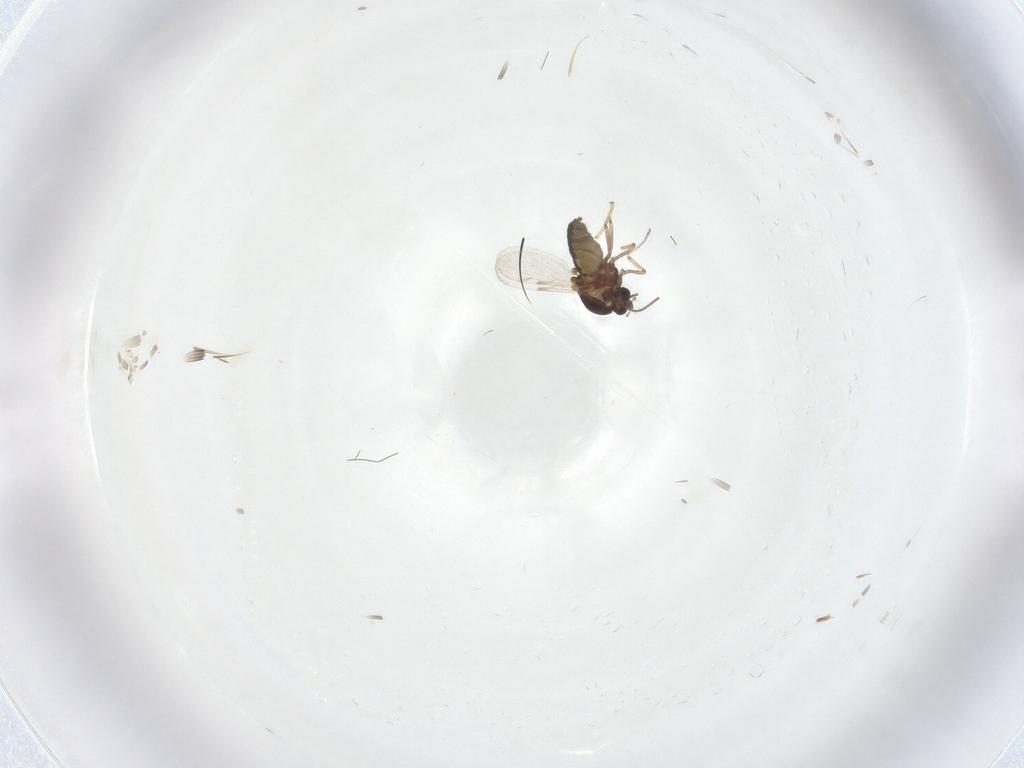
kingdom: Animalia
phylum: Arthropoda
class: Insecta
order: Diptera
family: Ceratopogonidae
